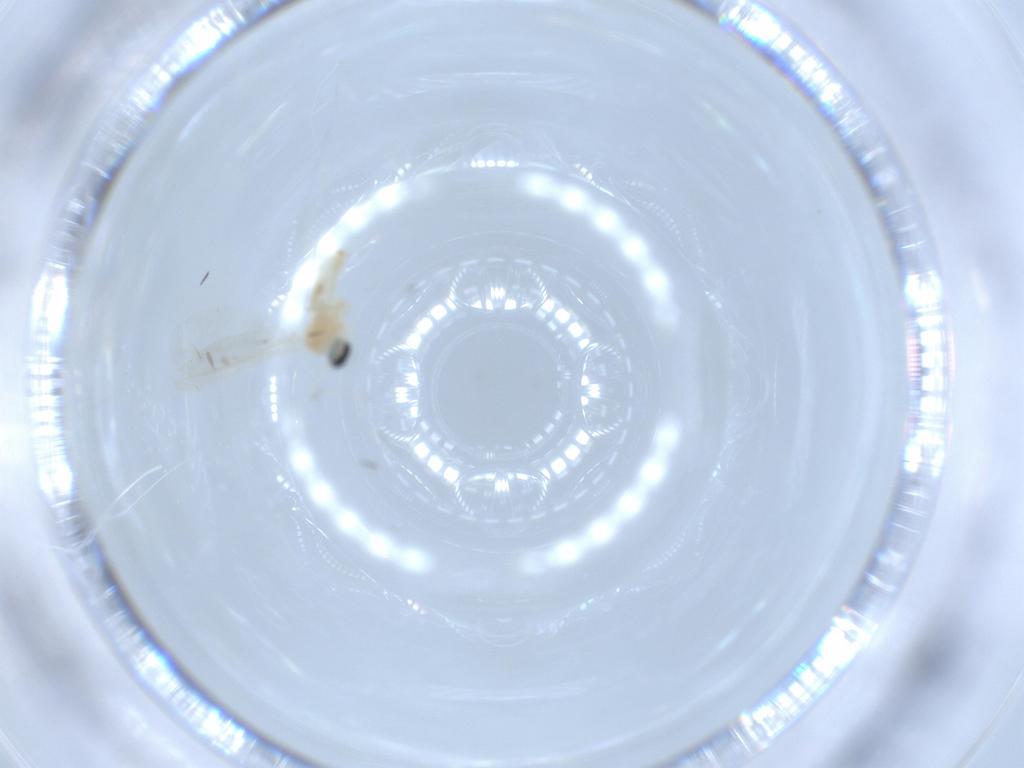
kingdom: Animalia
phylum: Arthropoda
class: Insecta
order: Diptera
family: Cecidomyiidae
